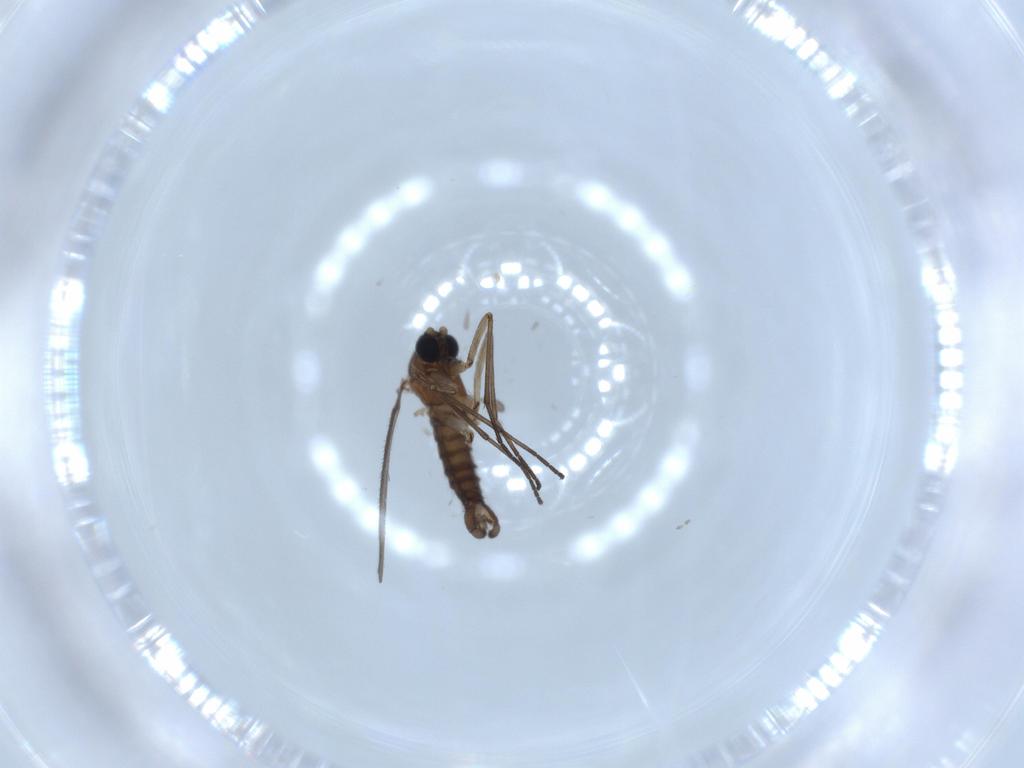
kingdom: Animalia
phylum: Arthropoda
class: Insecta
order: Diptera
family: Sciaridae
